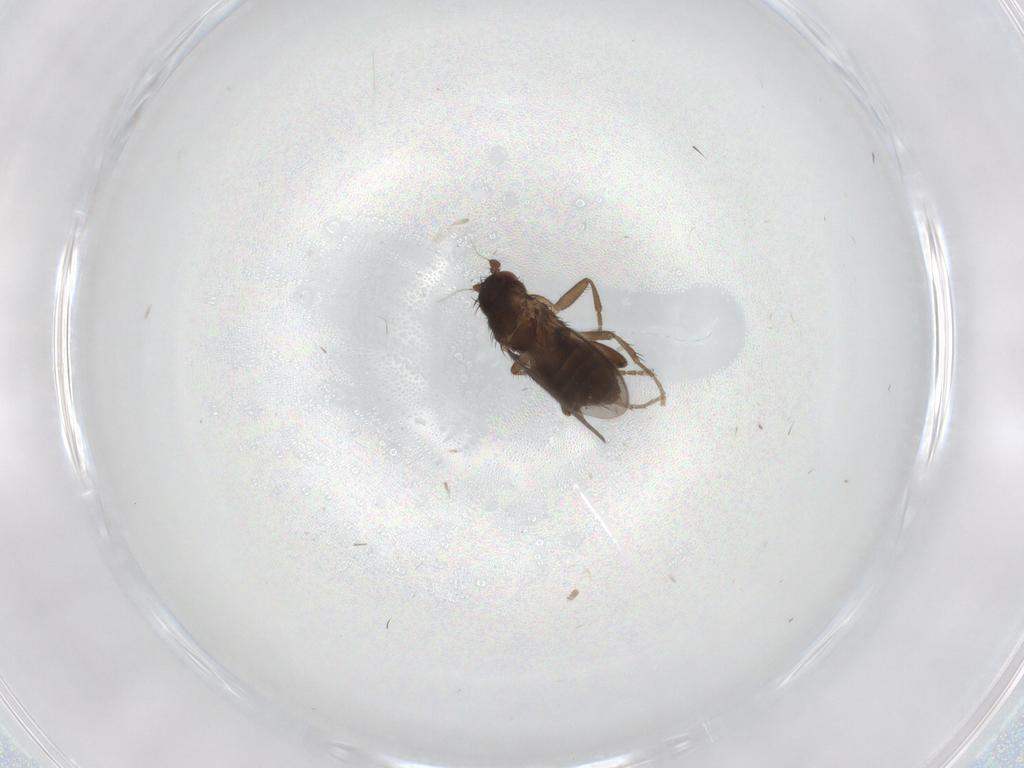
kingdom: Animalia
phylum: Arthropoda
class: Insecta
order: Diptera
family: Sphaeroceridae
